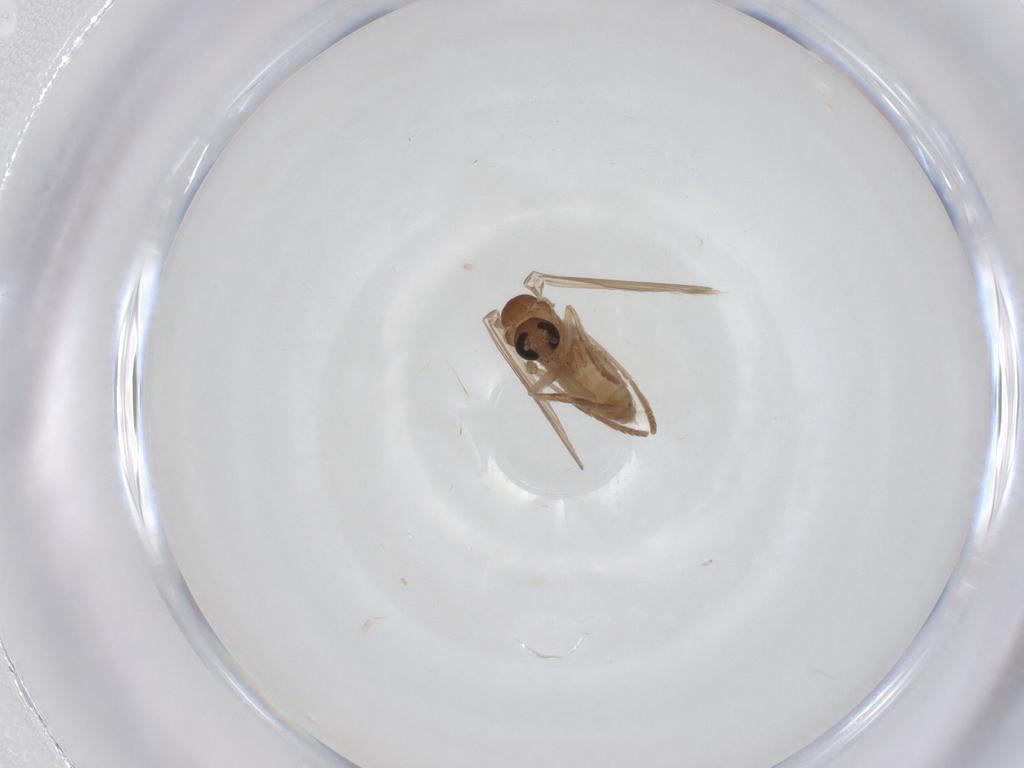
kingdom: Animalia
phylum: Arthropoda
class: Insecta
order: Diptera
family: Psychodidae
